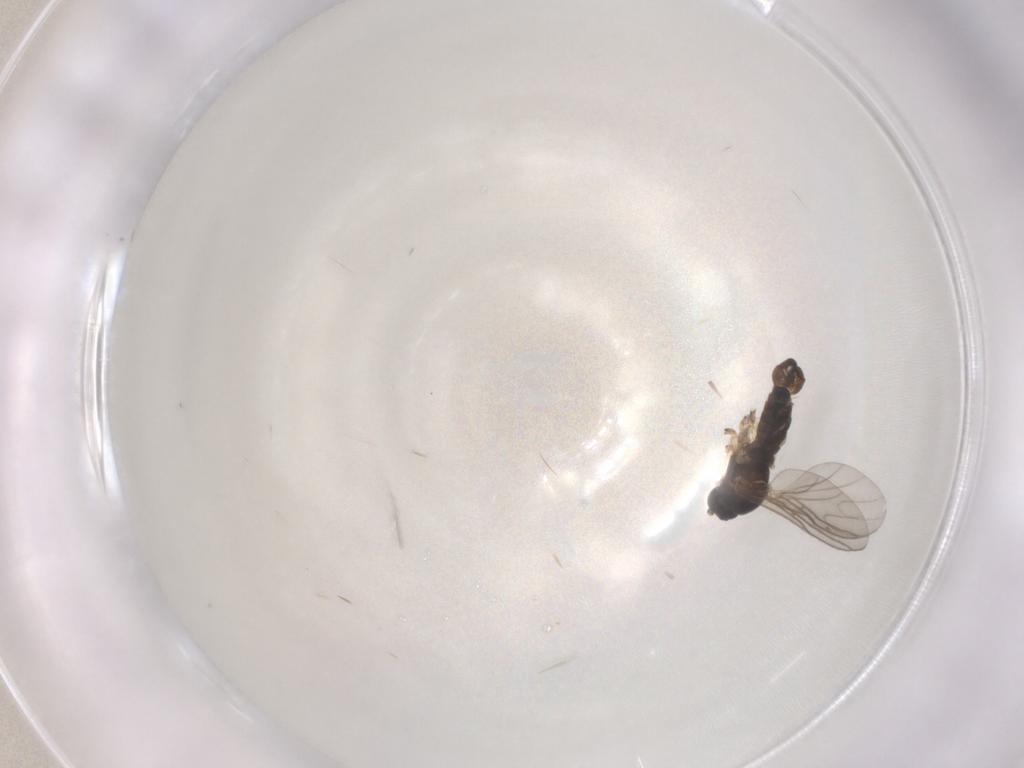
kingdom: Animalia
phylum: Arthropoda
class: Insecta
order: Diptera
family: Sciaridae
